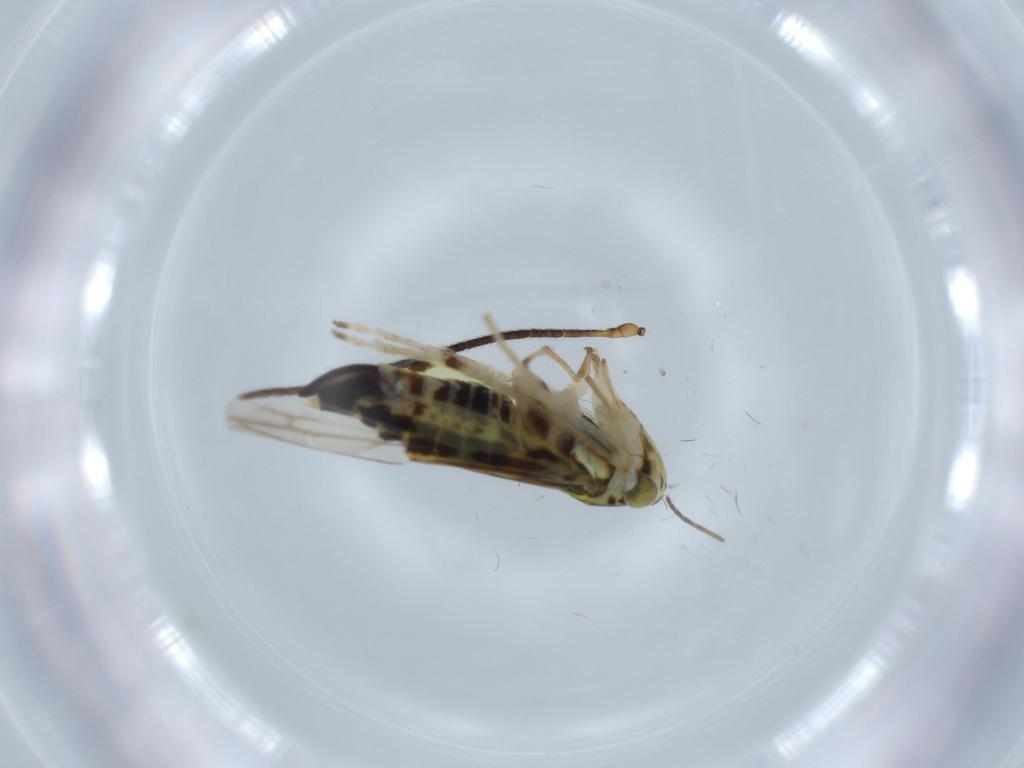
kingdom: Animalia
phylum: Arthropoda
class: Insecta
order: Hemiptera
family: Cicadellidae
